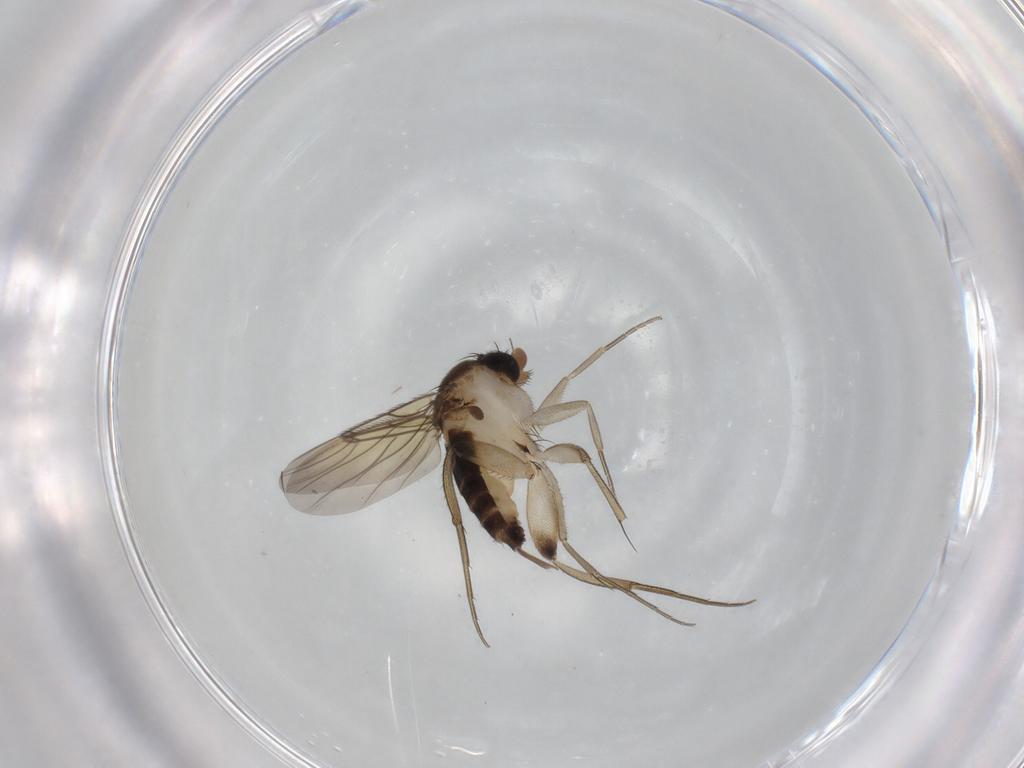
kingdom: Animalia
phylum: Arthropoda
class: Insecta
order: Diptera
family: Phoridae
